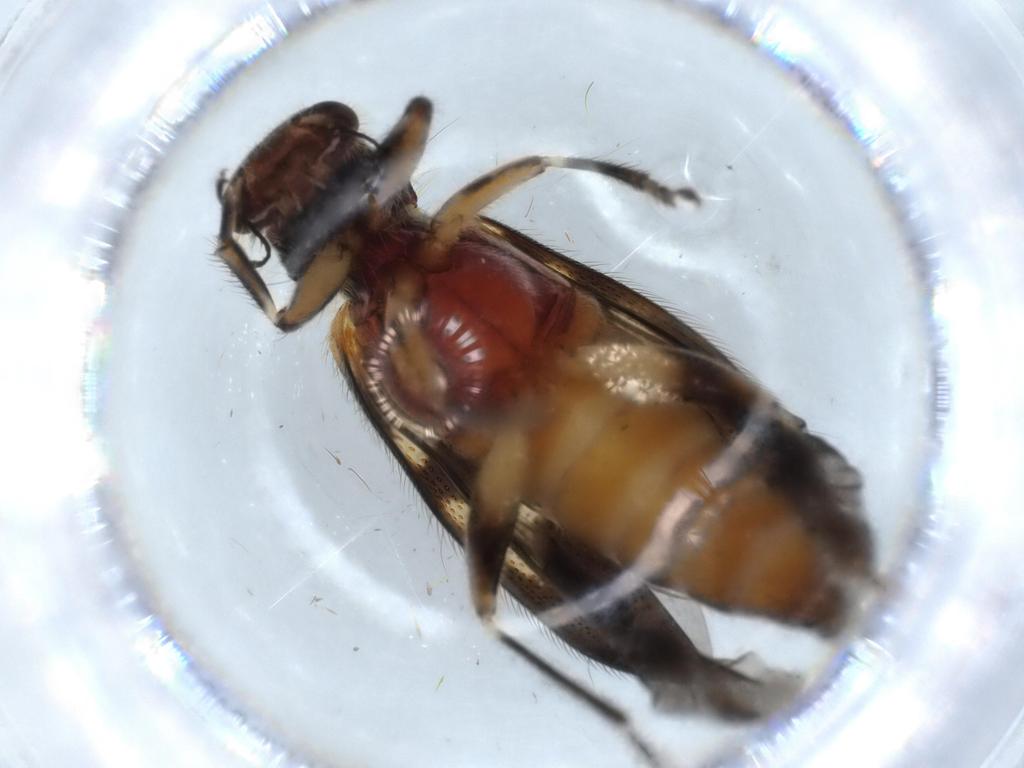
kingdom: Animalia
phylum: Arthropoda
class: Insecta
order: Coleoptera
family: Nitidulidae
